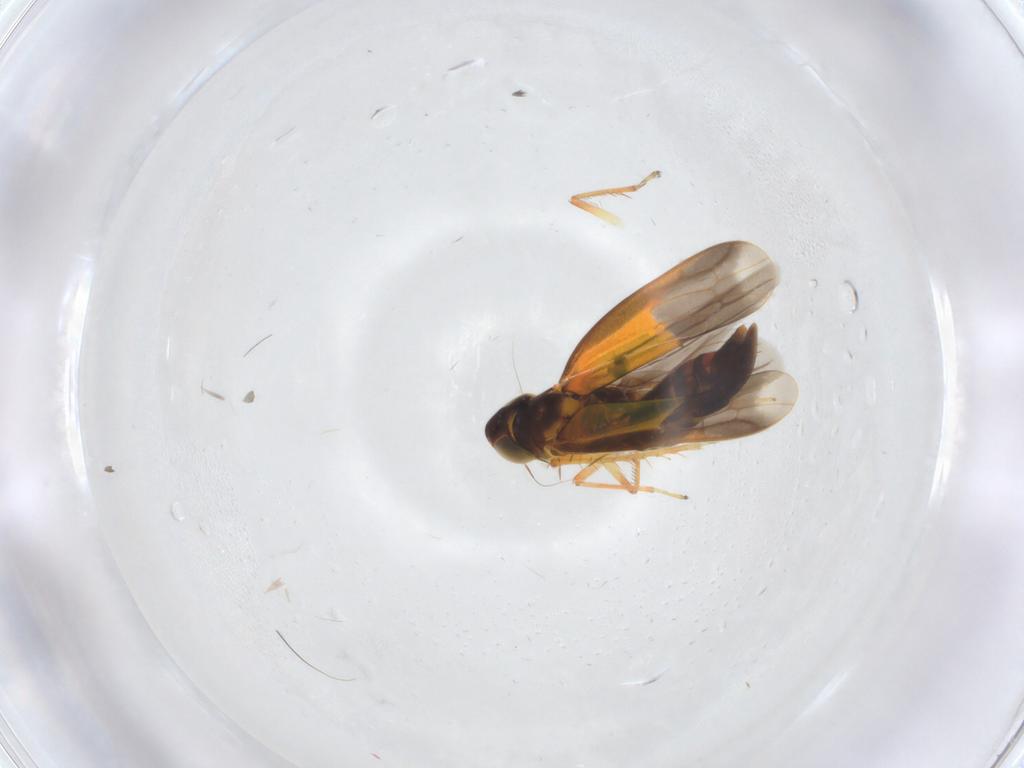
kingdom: Animalia
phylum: Arthropoda
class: Insecta
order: Hemiptera
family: Cicadellidae
